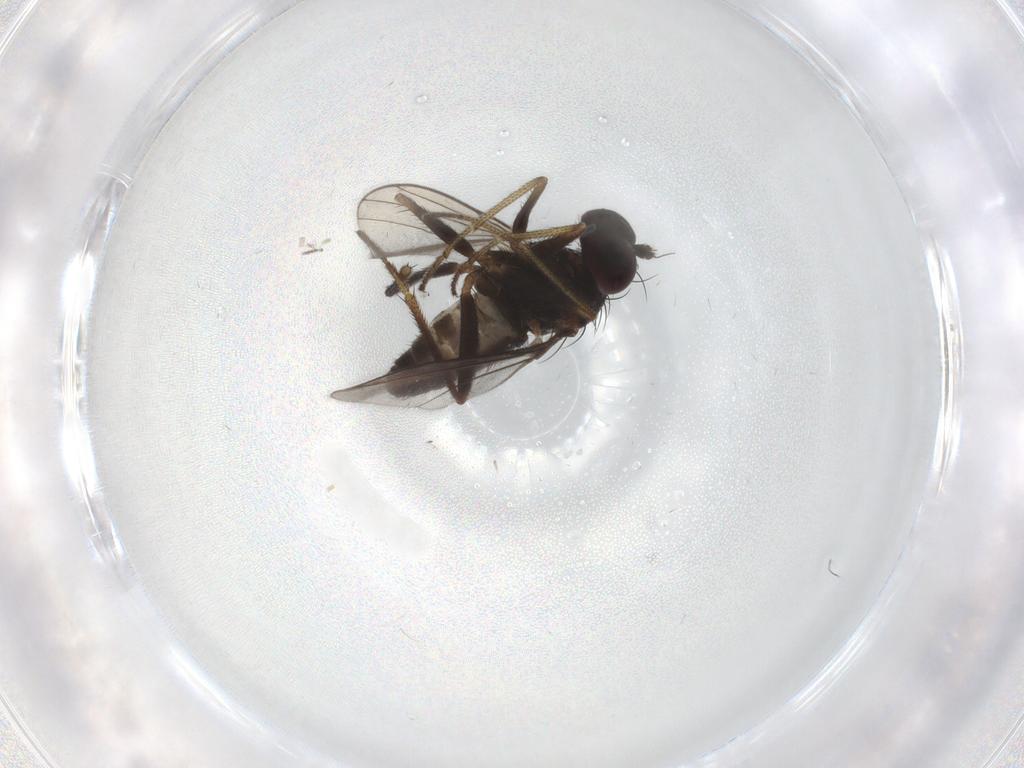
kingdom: Animalia
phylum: Arthropoda
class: Insecta
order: Diptera
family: Dolichopodidae
